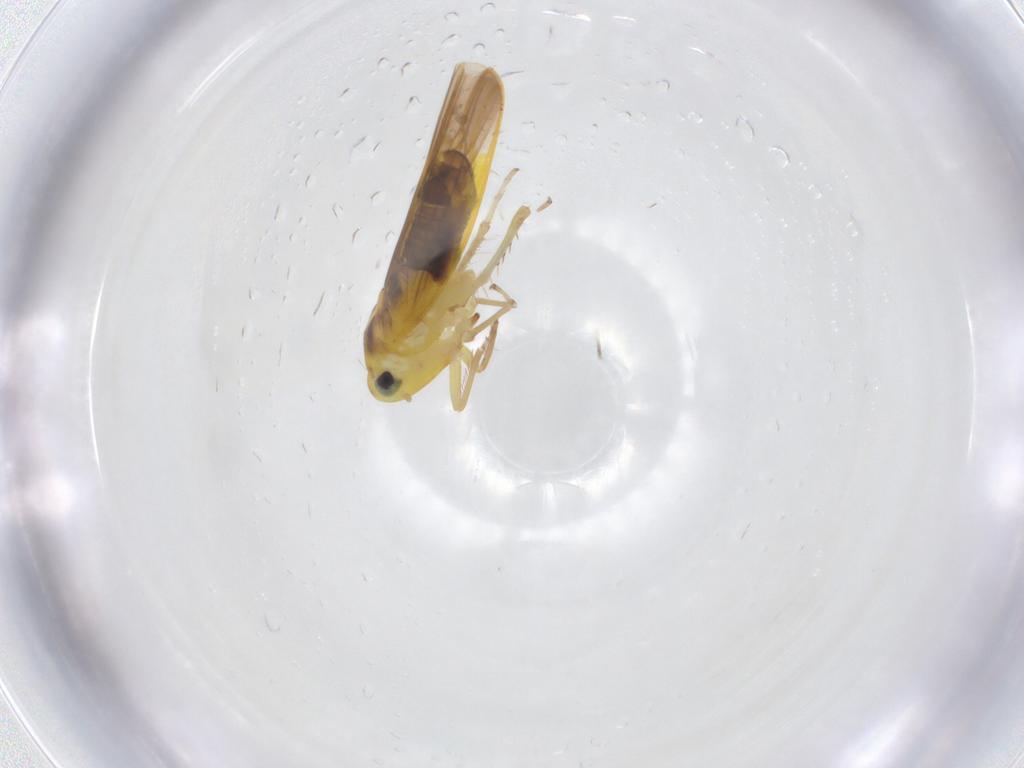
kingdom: Animalia
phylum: Arthropoda
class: Insecta
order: Hemiptera
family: Cicadellidae
